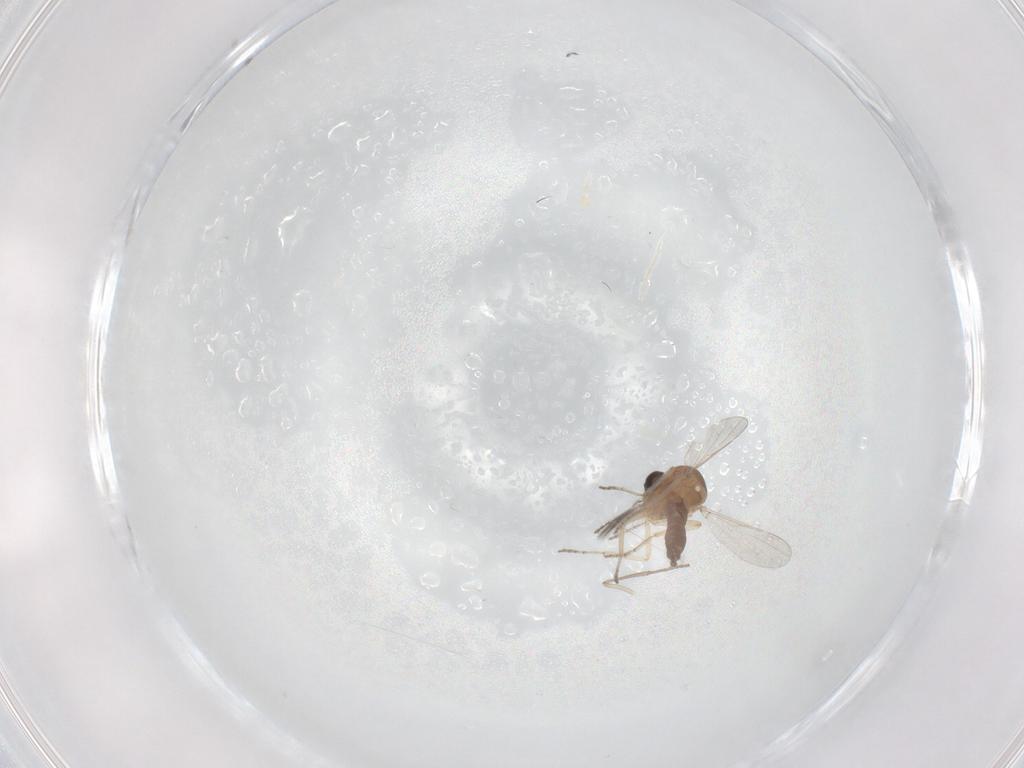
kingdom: Animalia
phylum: Arthropoda
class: Insecta
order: Diptera
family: Ceratopogonidae
